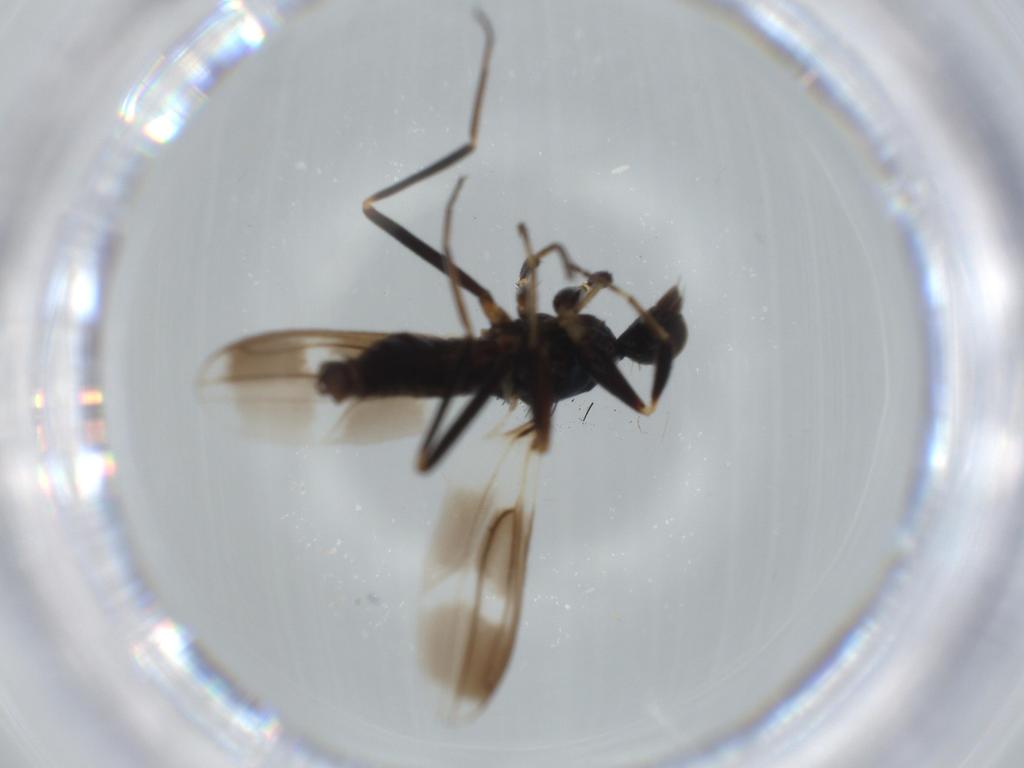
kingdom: Animalia
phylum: Arthropoda
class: Insecta
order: Diptera
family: Hybotidae
